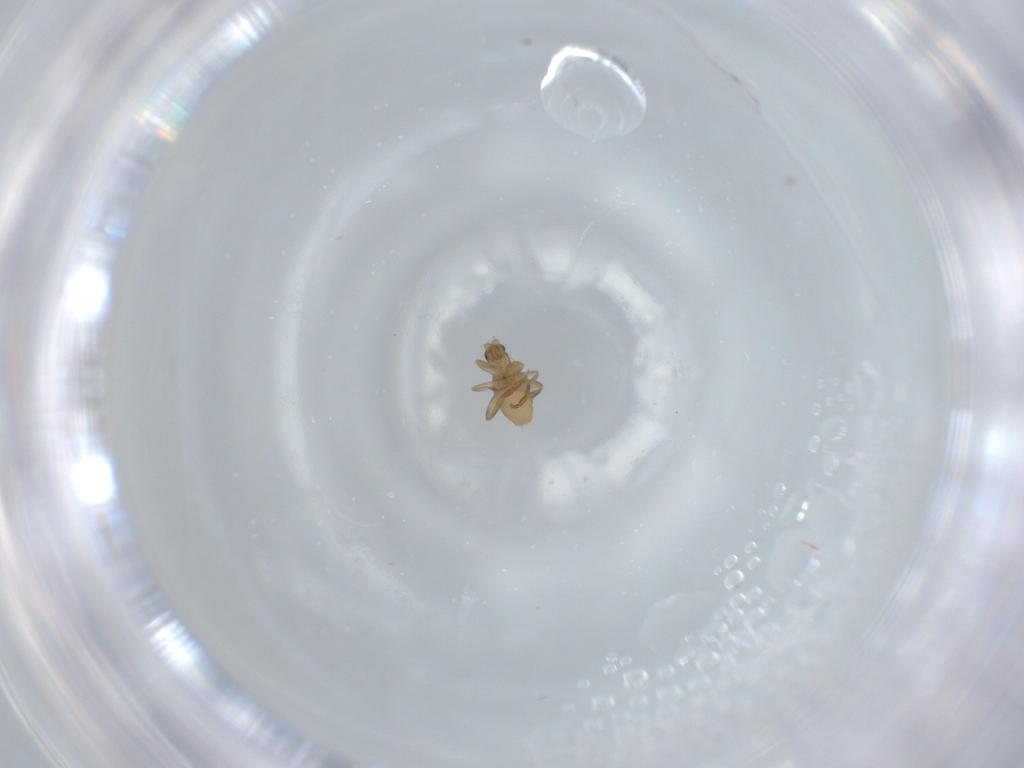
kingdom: Animalia
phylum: Arthropoda
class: Insecta
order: Diptera
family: Phoridae
